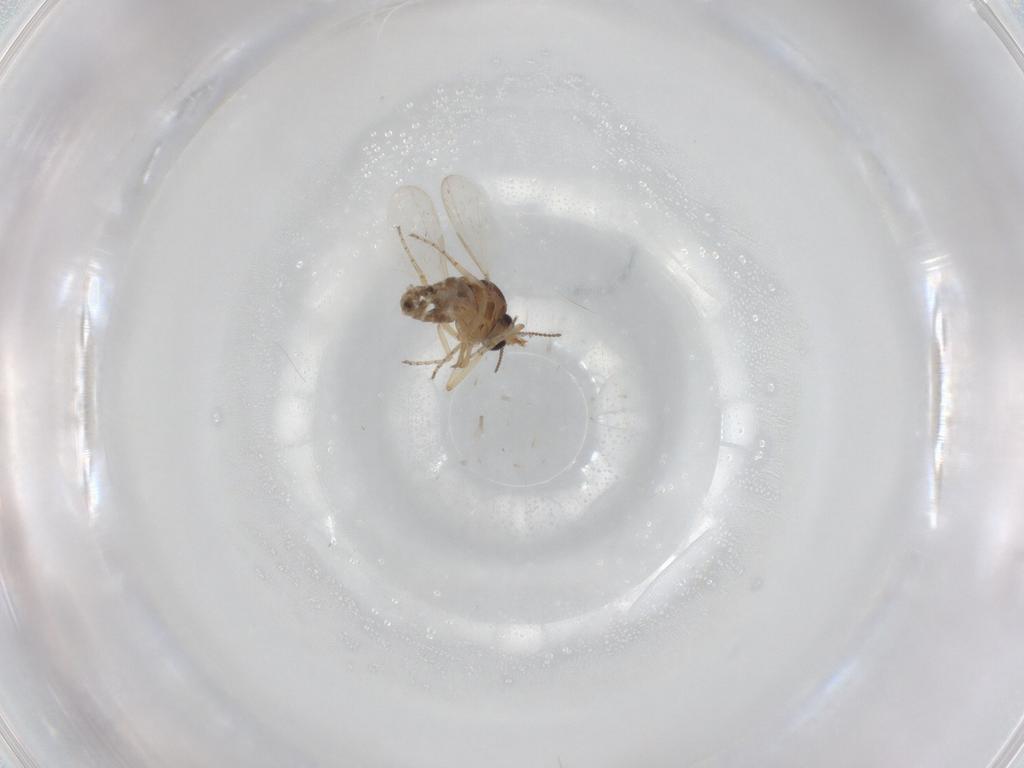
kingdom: Animalia
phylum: Arthropoda
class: Insecta
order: Diptera
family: Ceratopogonidae
